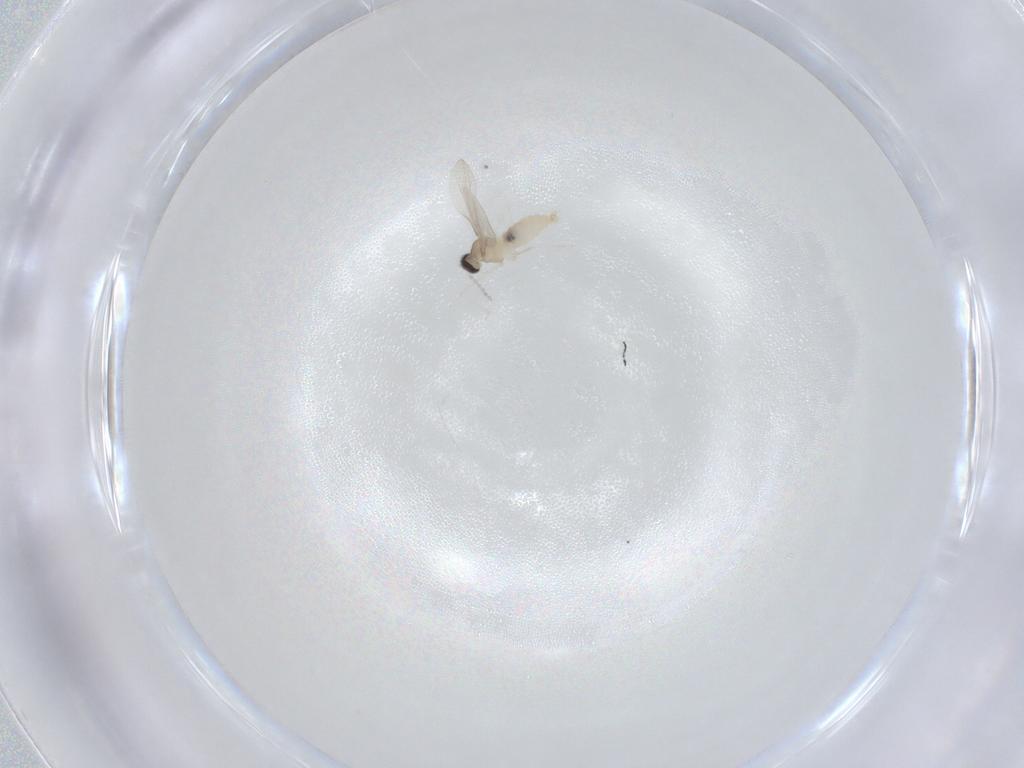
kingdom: Animalia
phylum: Arthropoda
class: Insecta
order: Diptera
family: Cecidomyiidae
